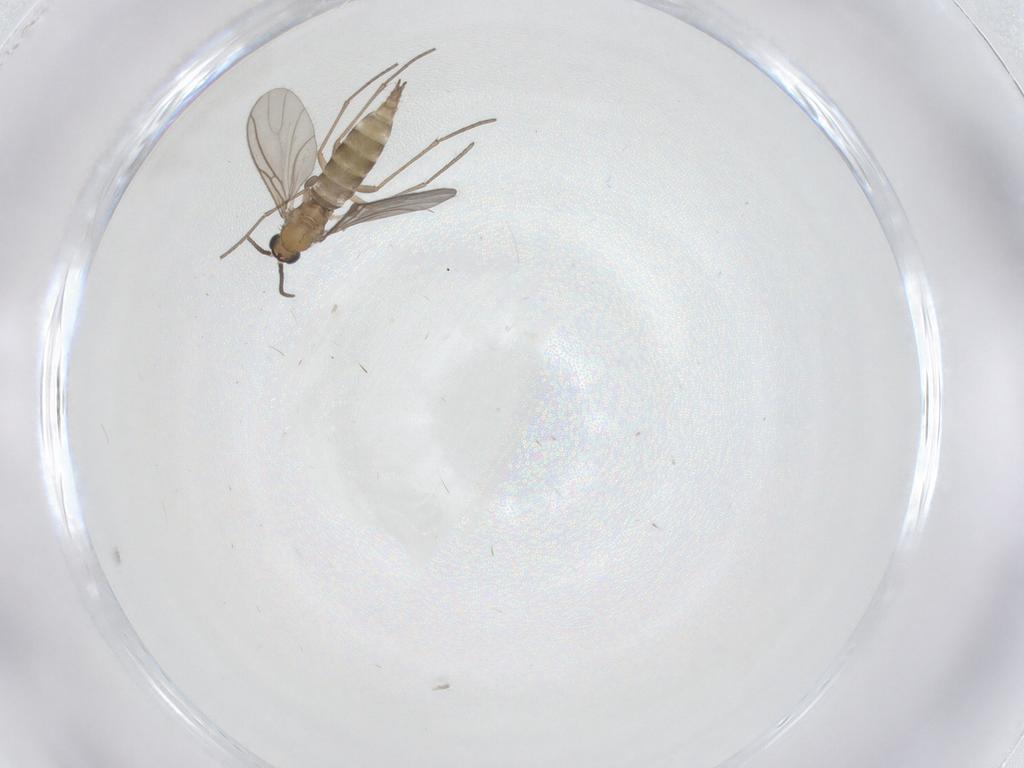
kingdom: Animalia
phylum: Arthropoda
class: Insecta
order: Diptera
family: Sciaridae
